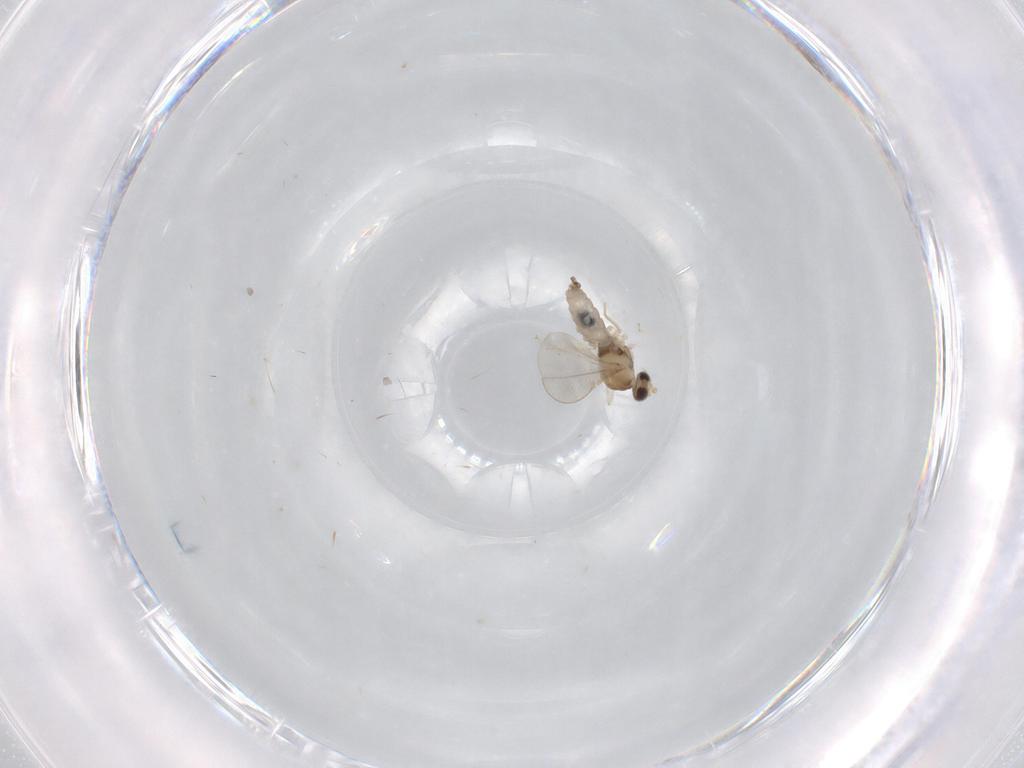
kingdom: Animalia
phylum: Arthropoda
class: Insecta
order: Diptera
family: Cecidomyiidae
